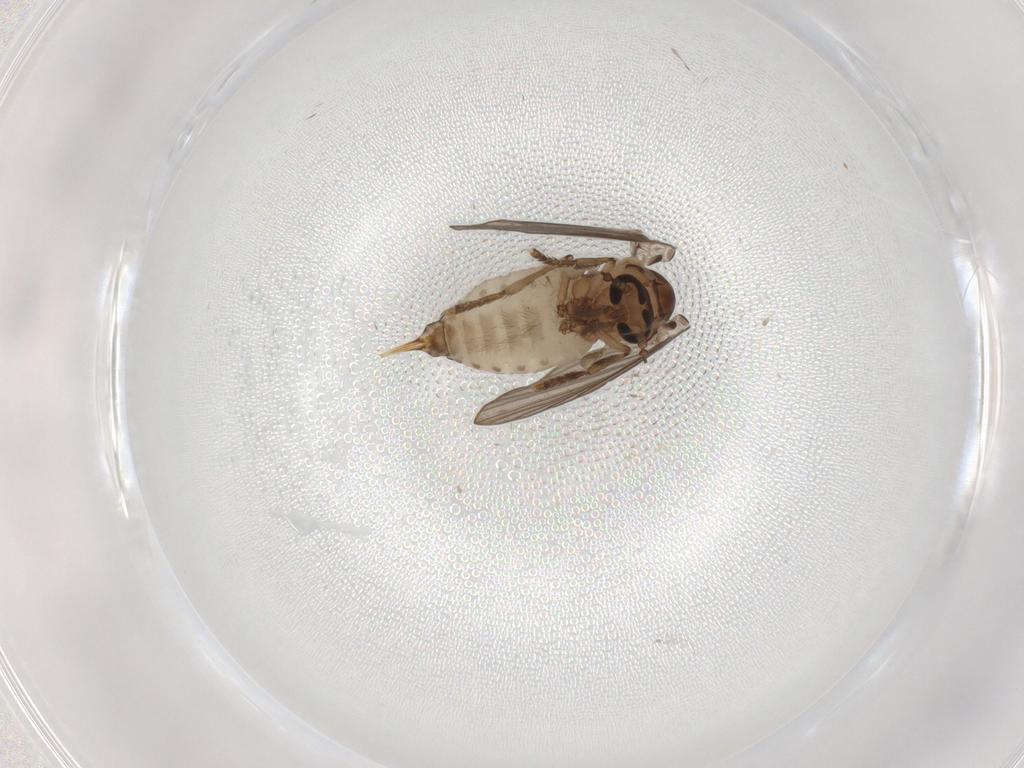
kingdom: Animalia
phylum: Arthropoda
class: Insecta
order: Diptera
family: Psychodidae
